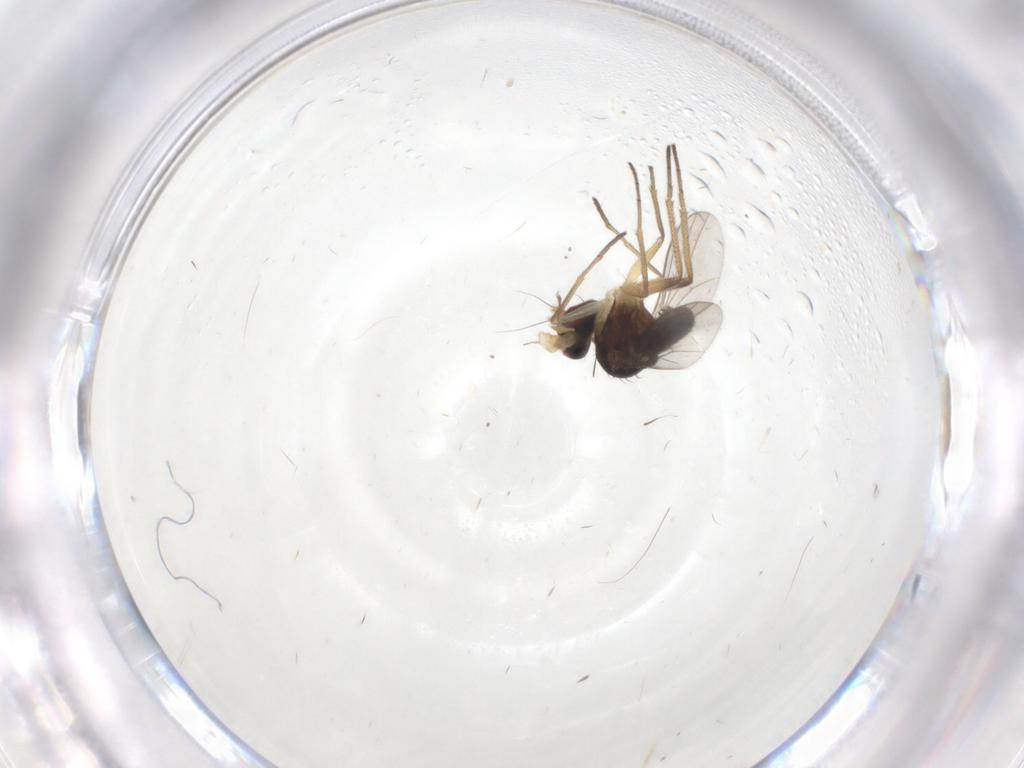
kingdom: Animalia
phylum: Arthropoda
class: Insecta
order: Diptera
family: Dolichopodidae
